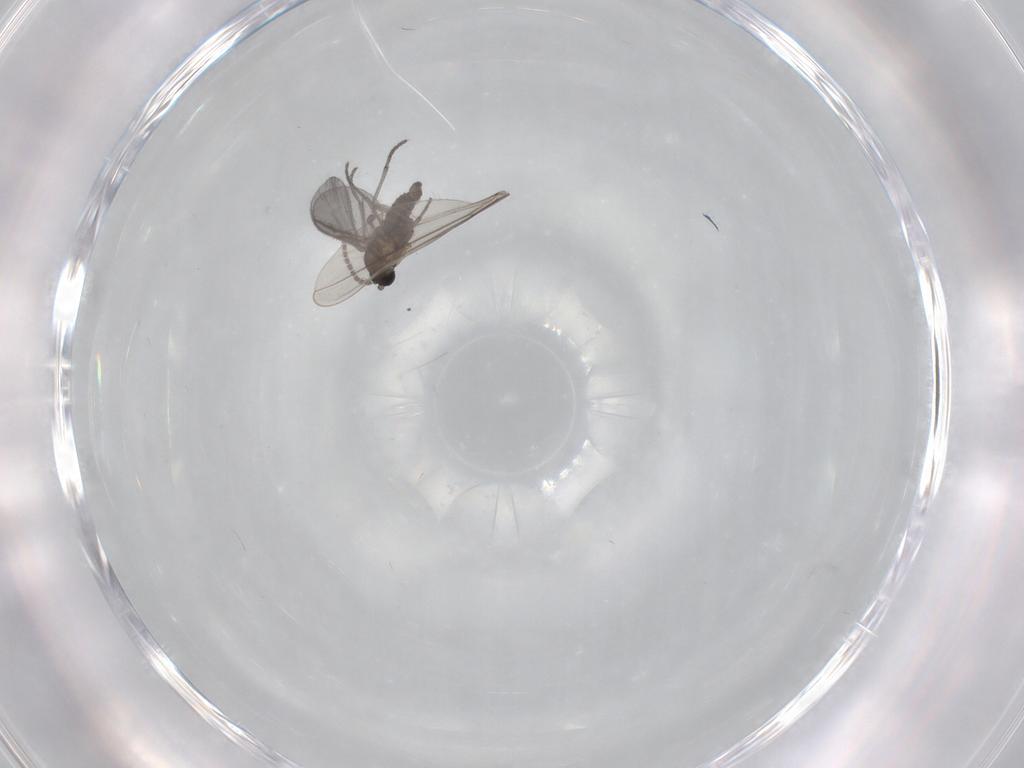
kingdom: Animalia
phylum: Arthropoda
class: Insecta
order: Diptera
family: Sciaridae
